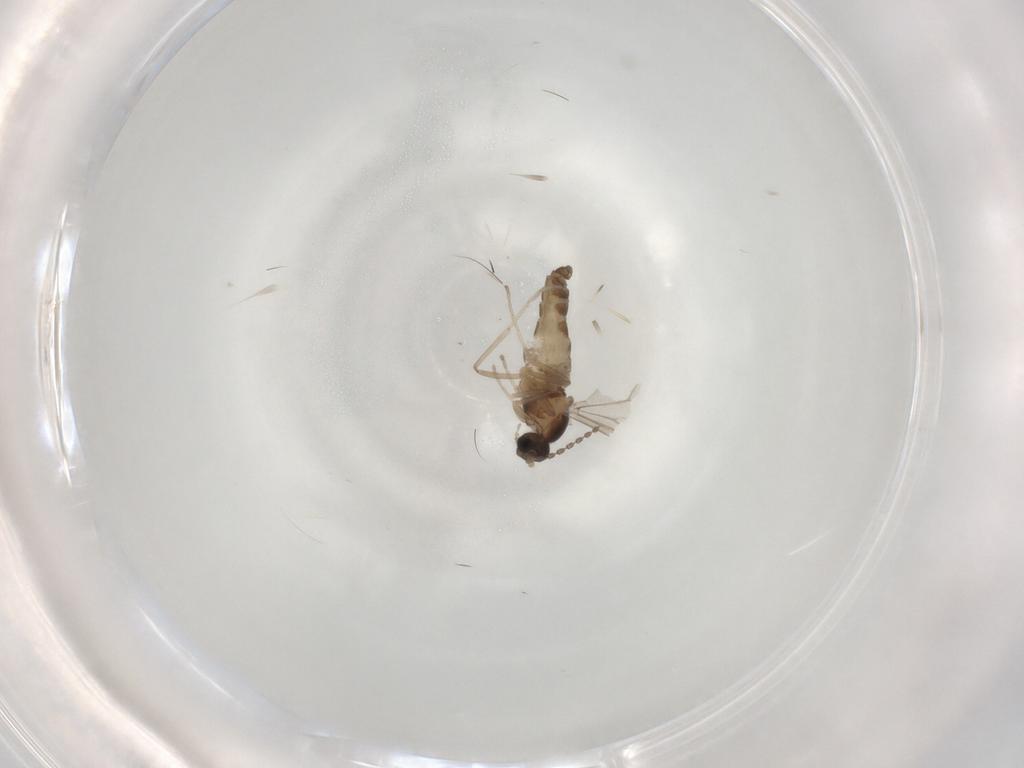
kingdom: Animalia
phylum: Arthropoda
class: Insecta
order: Diptera
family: Cecidomyiidae
